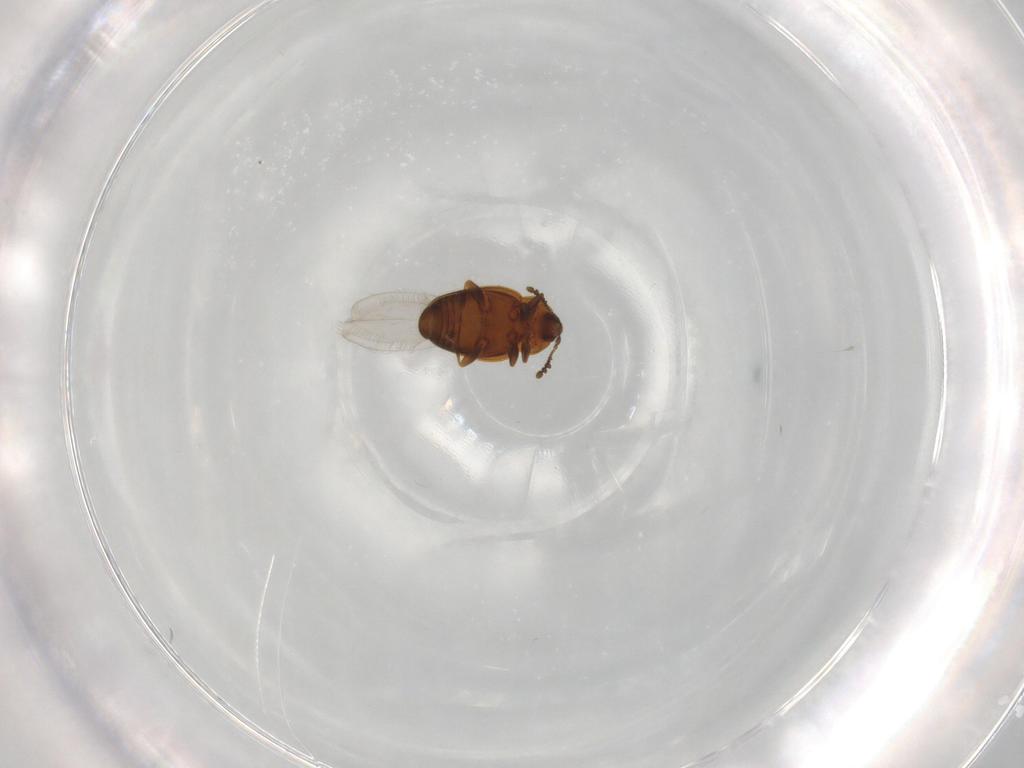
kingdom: Animalia
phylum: Arthropoda
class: Insecta
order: Coleoptera
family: Corylophidae
